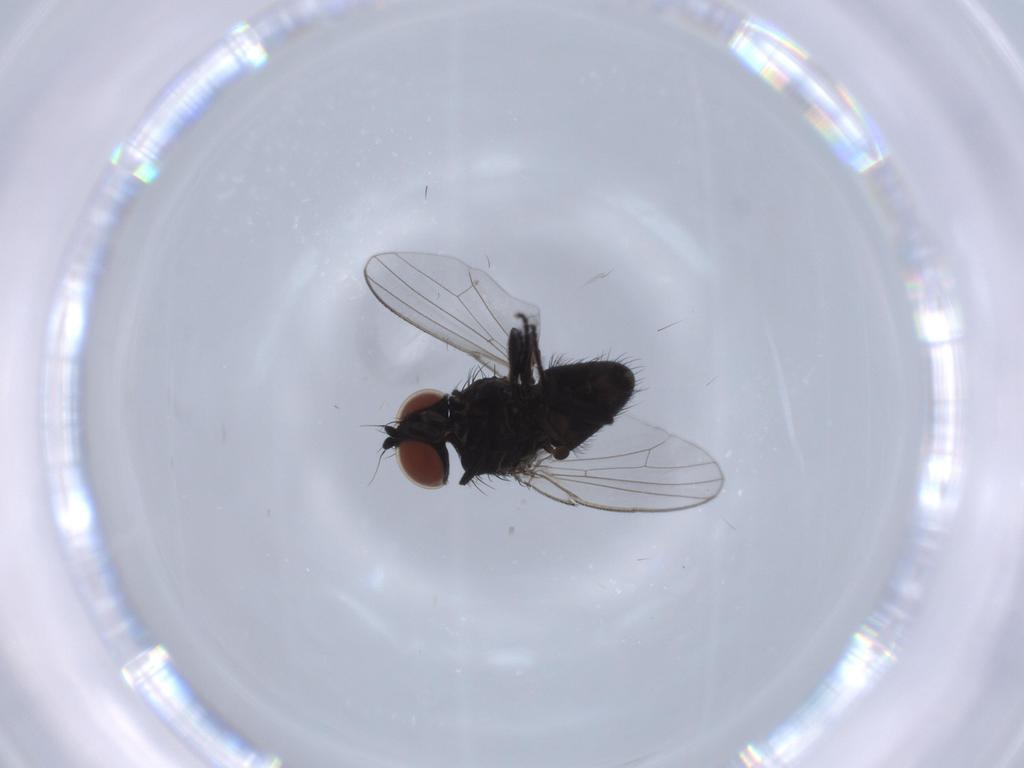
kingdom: Animalia
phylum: Arthropoda
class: Insecta
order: Diptera
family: Milichiidae
